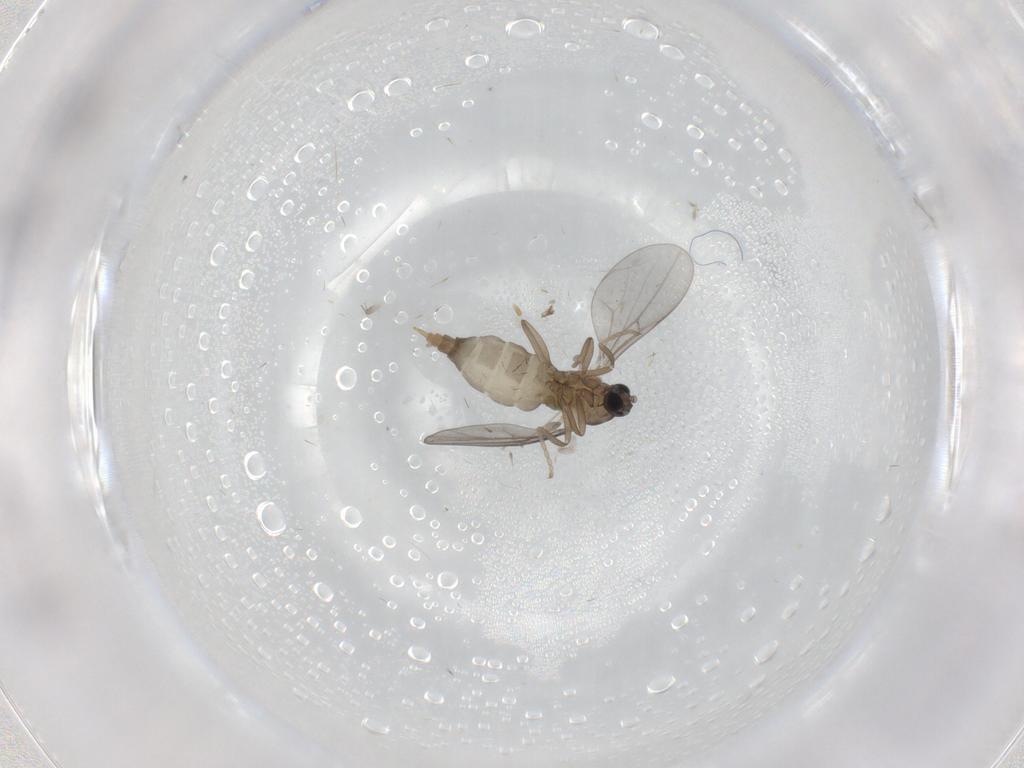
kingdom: Animalia
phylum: Arthropoda
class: Insecta
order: Diptera
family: Cecidomyiidae
